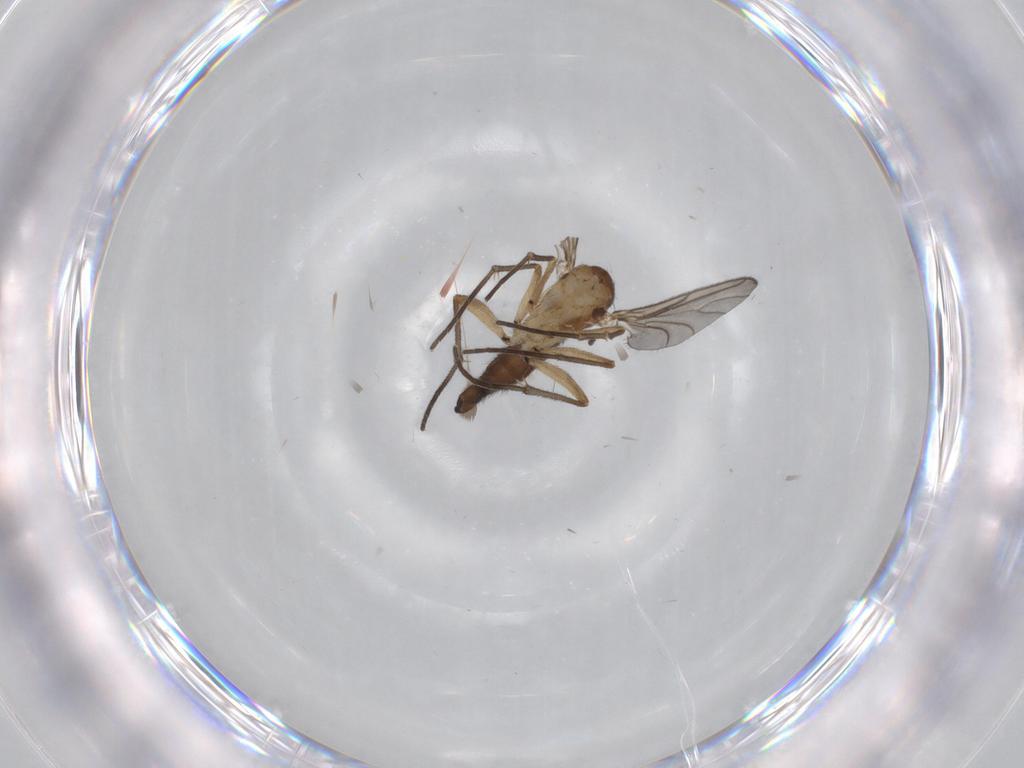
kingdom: Animalia
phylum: Arthropoda
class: Insecta
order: Diptera
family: Sciaridae
